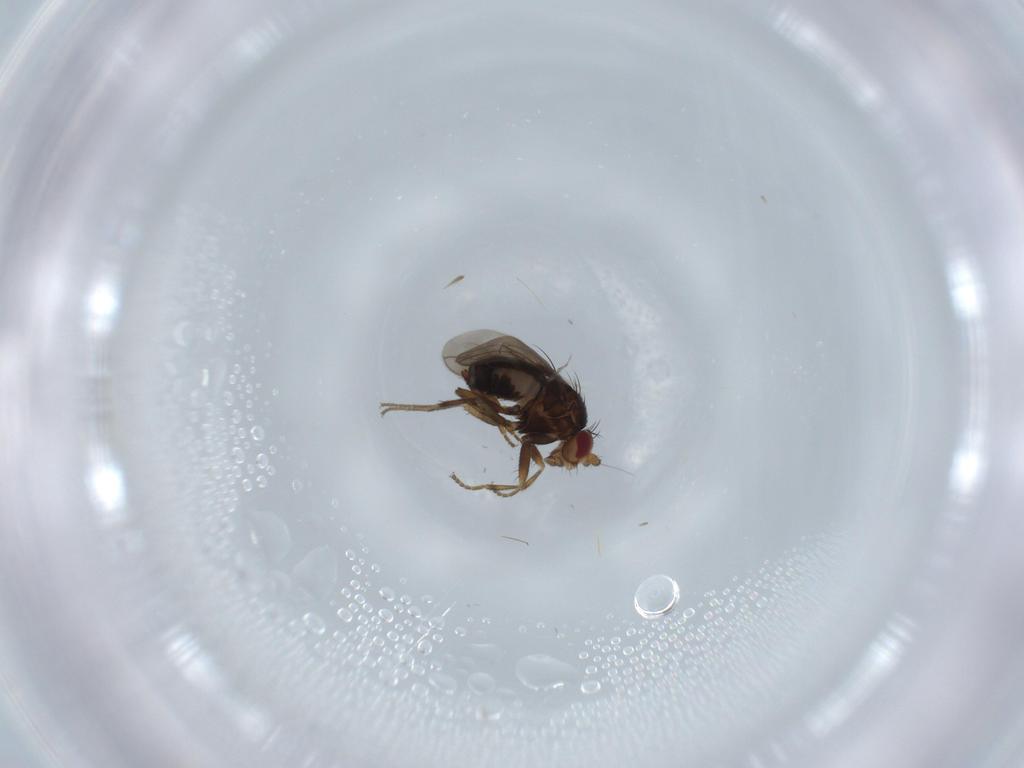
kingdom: Animalia
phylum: Arthropoda
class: Insecta
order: Diptera
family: Sphaeroceridae
